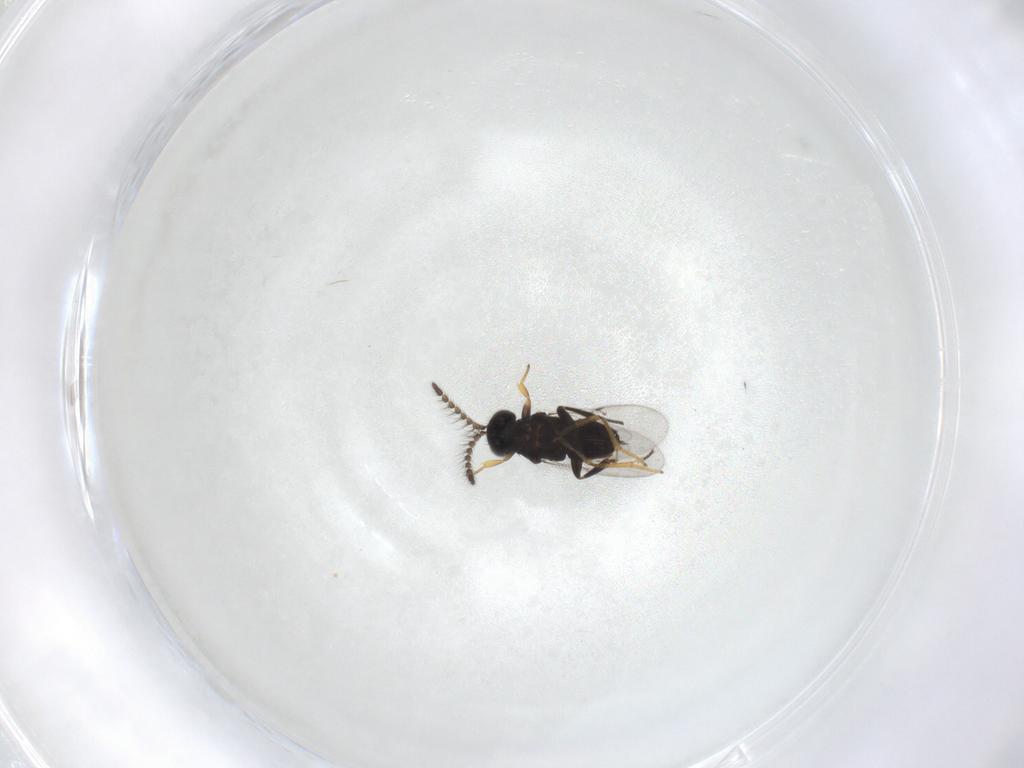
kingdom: Animalia
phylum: Arthropoda
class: Insecta
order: Hymenoptera
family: Encyrtidae
